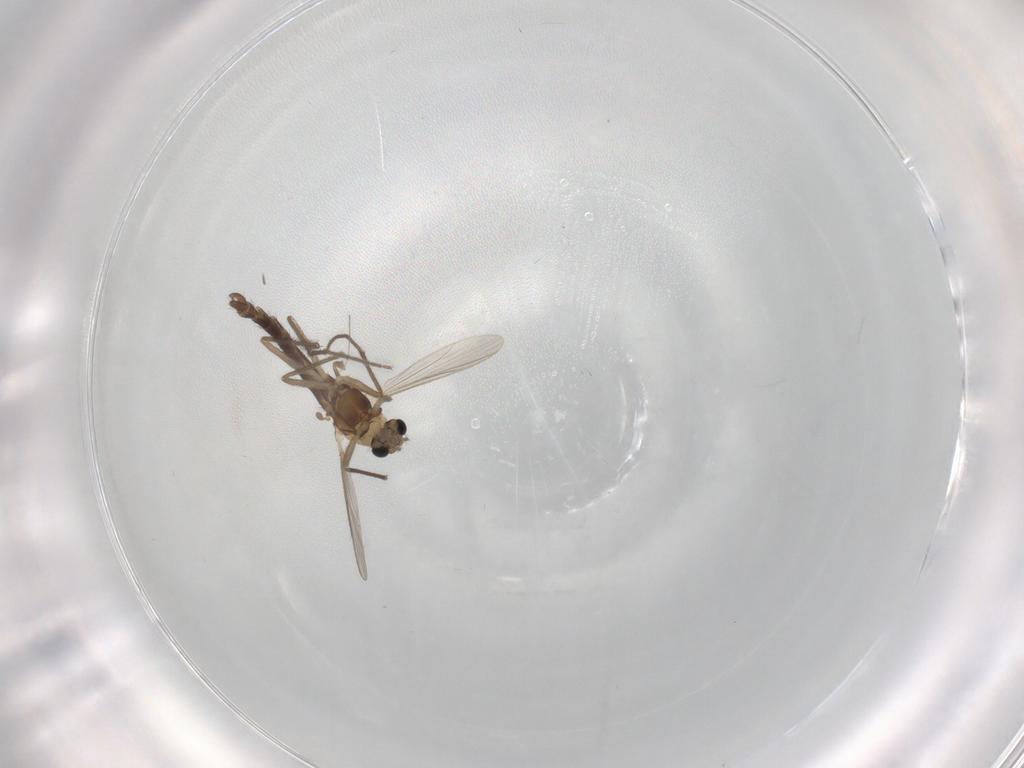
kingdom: Animalia
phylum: Arthropoda
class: Insecta
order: Diptera
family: Chironomidae
